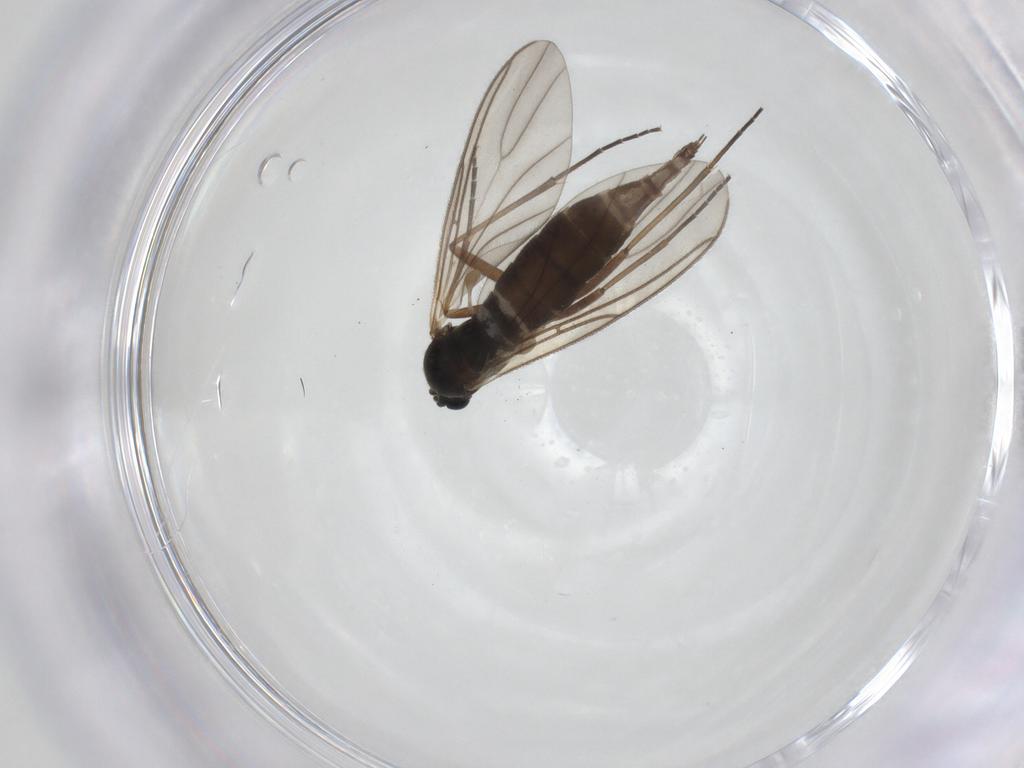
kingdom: Animalia
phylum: Arthropoda
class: Insecta
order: Diptera
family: Sciaridae
